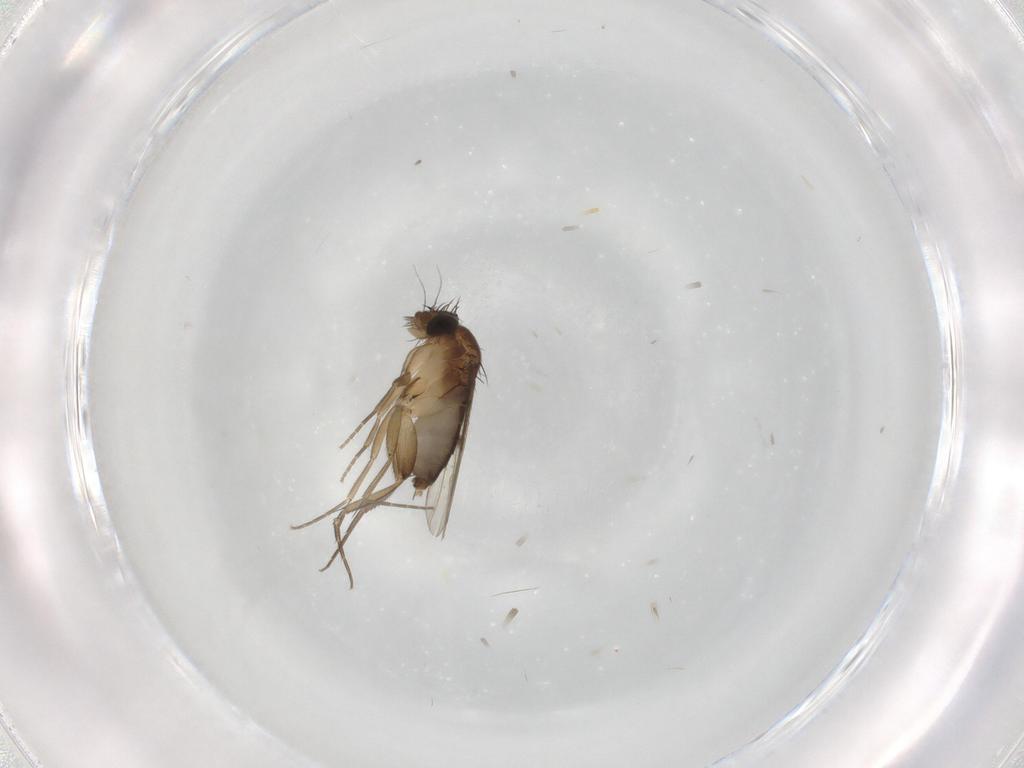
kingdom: Animalia
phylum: Arthropoda
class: Insecta
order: Diptera
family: Phoridae
